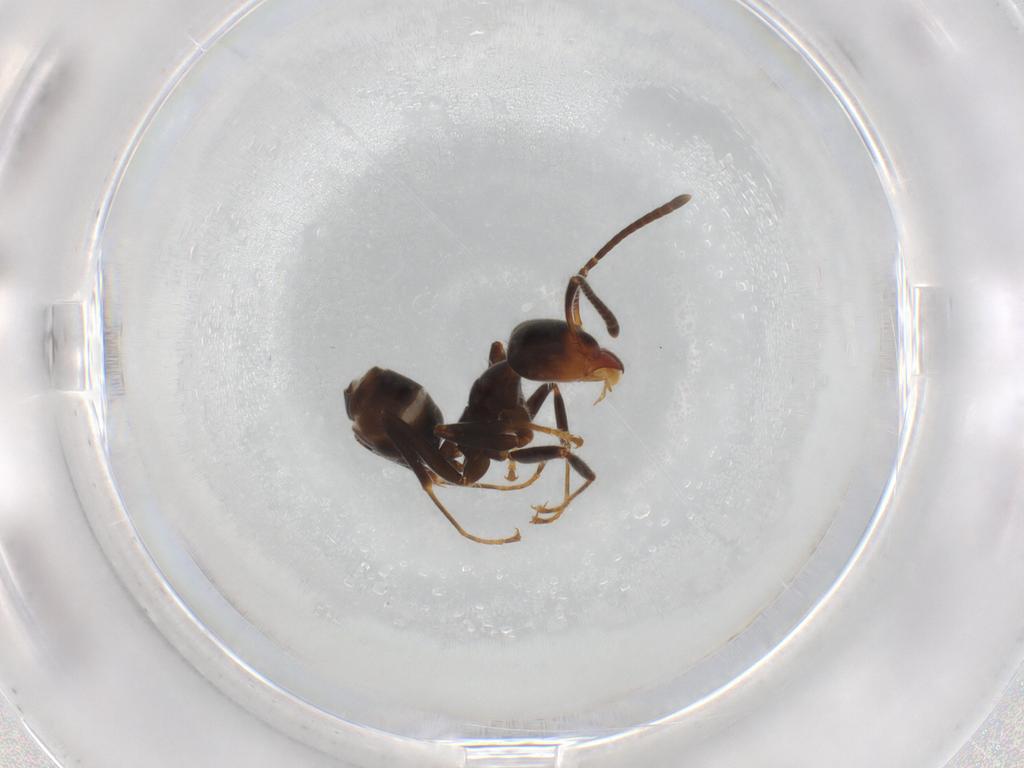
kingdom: Animalia
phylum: Arthropoda
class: Insecta
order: Hymenoptera
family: Formicidae
